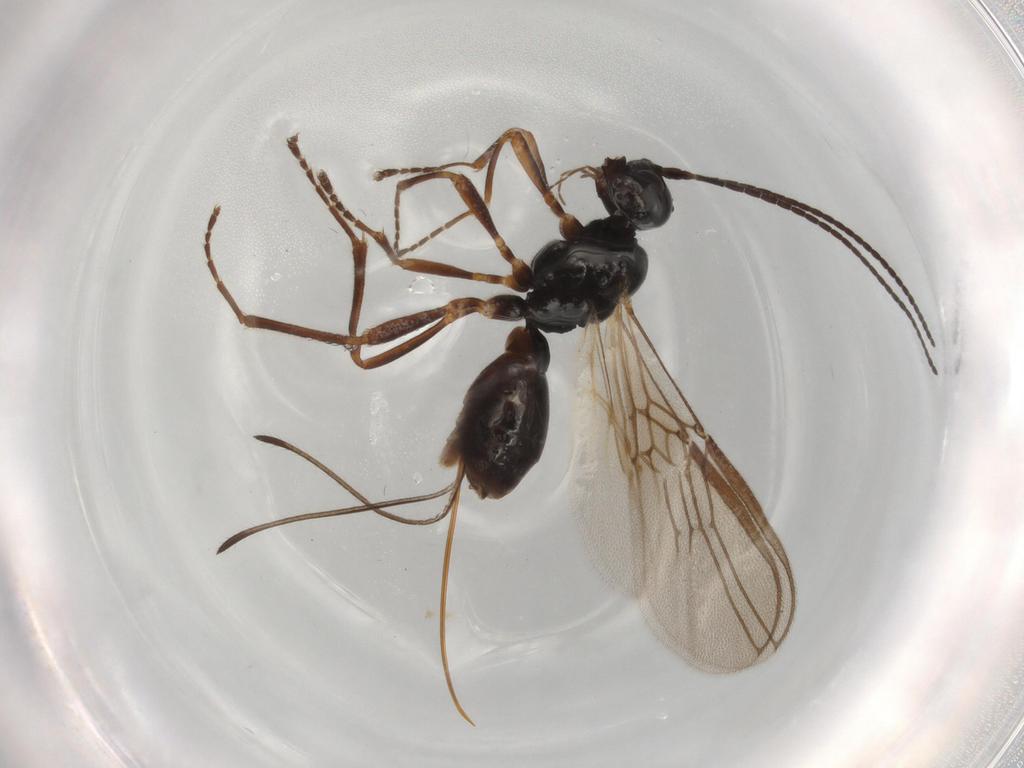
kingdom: Animalia
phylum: Arthropoda
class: Insecta
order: Hymenoptera
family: Braconidae
